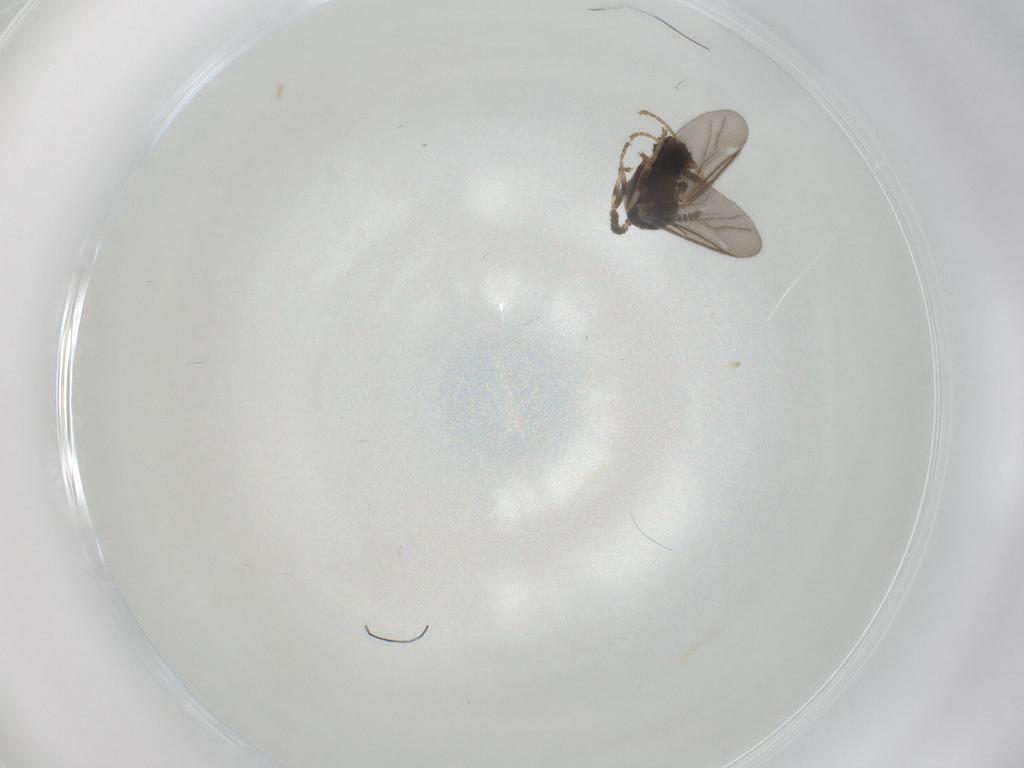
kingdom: Animalia
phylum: Arthropoda
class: Insecta
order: Diptera
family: Scatopsidae
